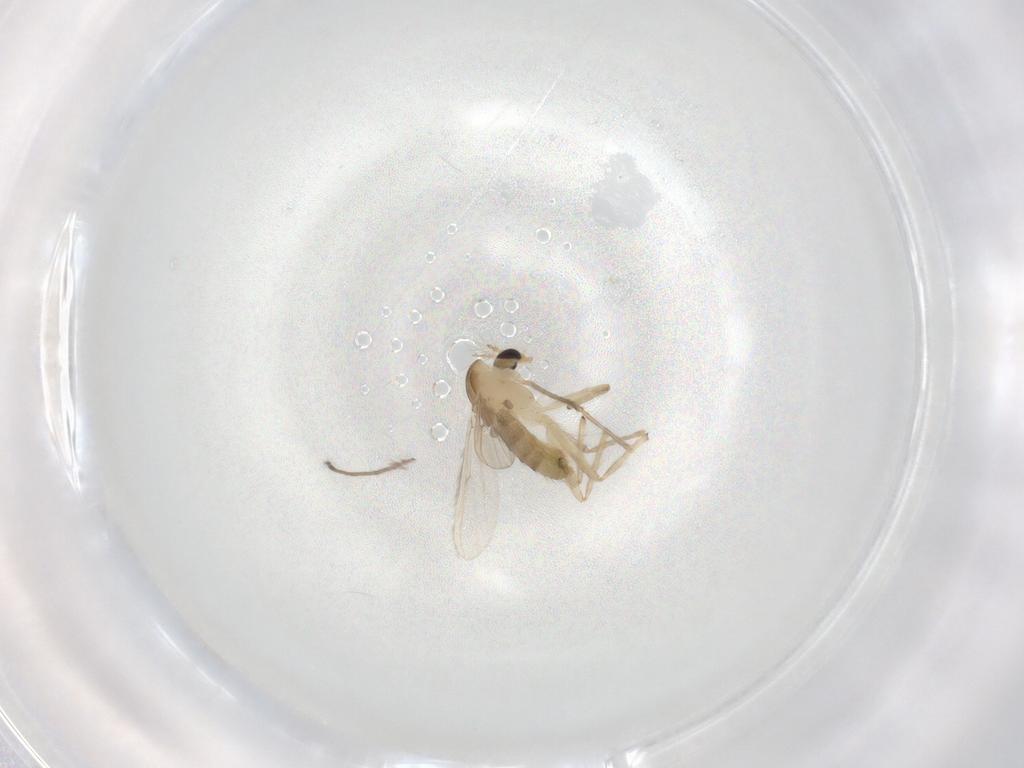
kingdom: Animalia
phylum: Arthropoda
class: Insecta
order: Diptera
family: Chironomidae
